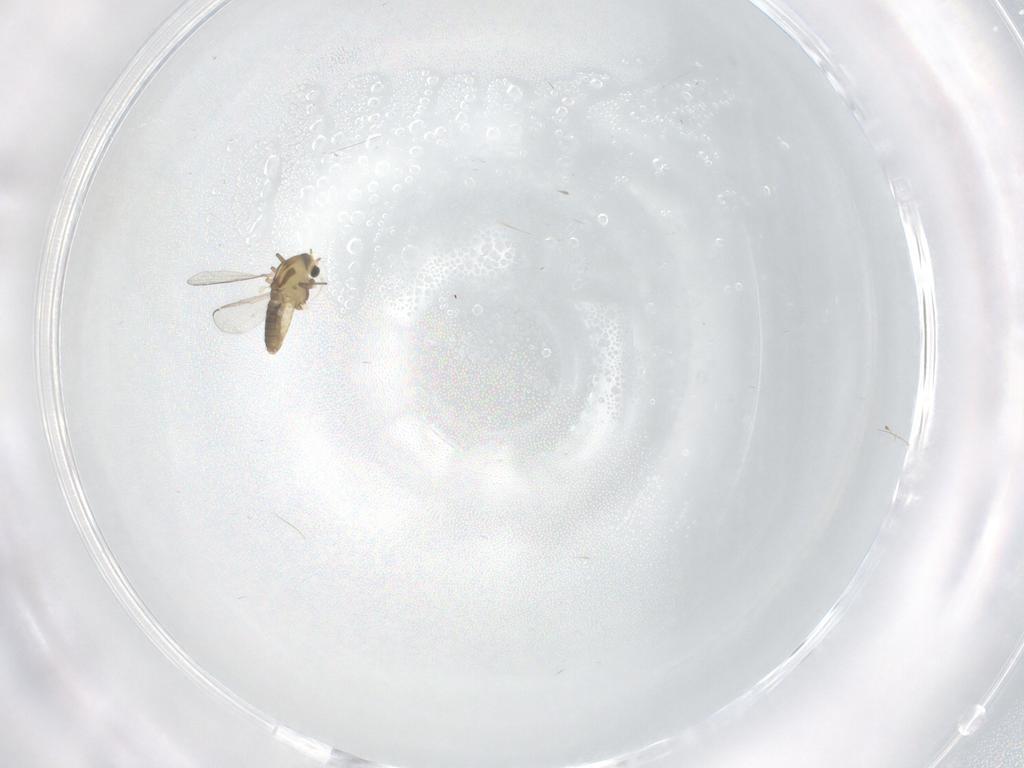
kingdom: Animalia
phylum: Arthropoda
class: Insecta
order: Diptera
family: Chironomidae
